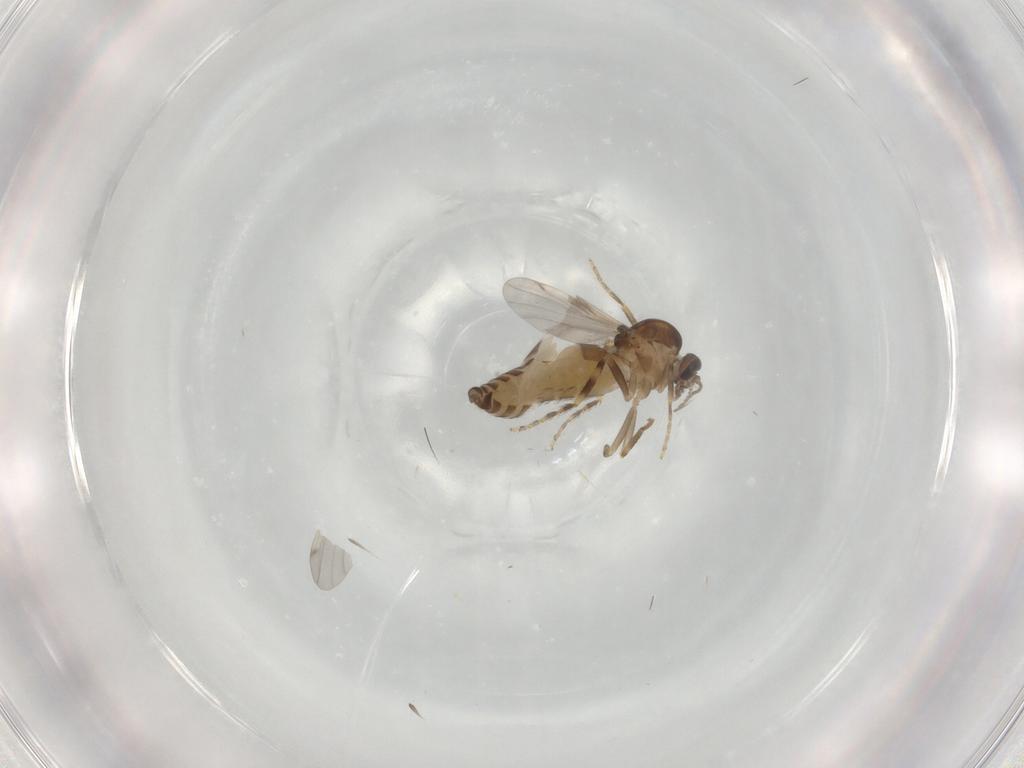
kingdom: Animalia
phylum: Arthropoda
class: Insecta
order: Diptera
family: Ceratopogonidae
